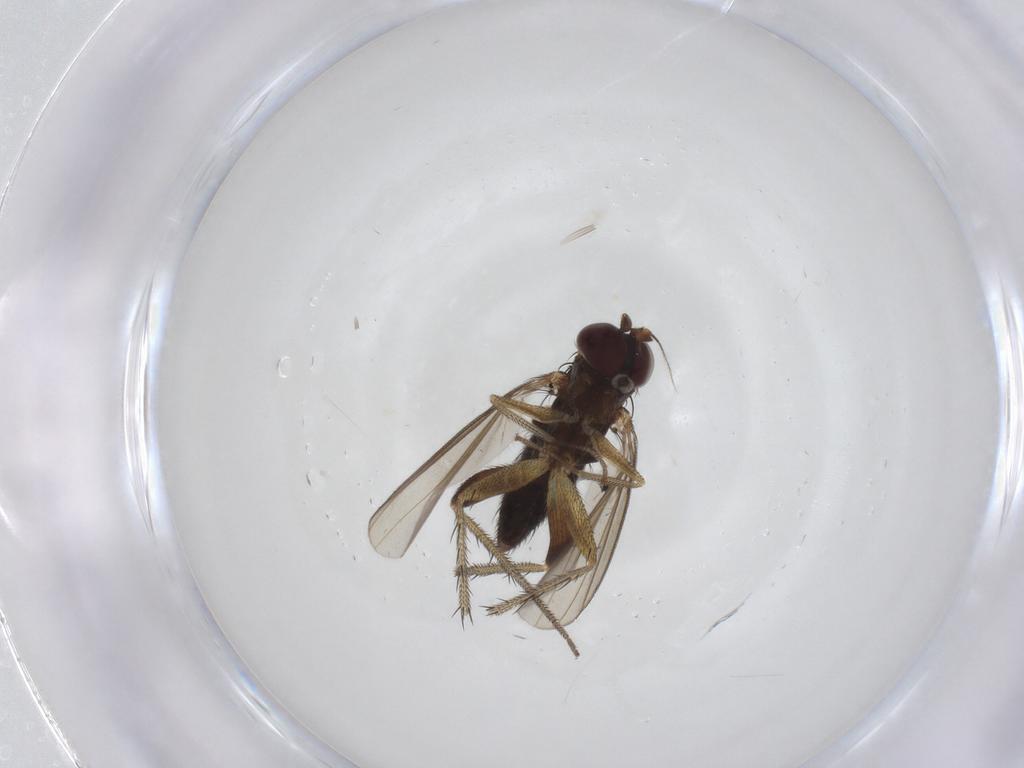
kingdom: Animalia
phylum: Arthropoda
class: Insecta
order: Diptera
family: Dolichopodidae
